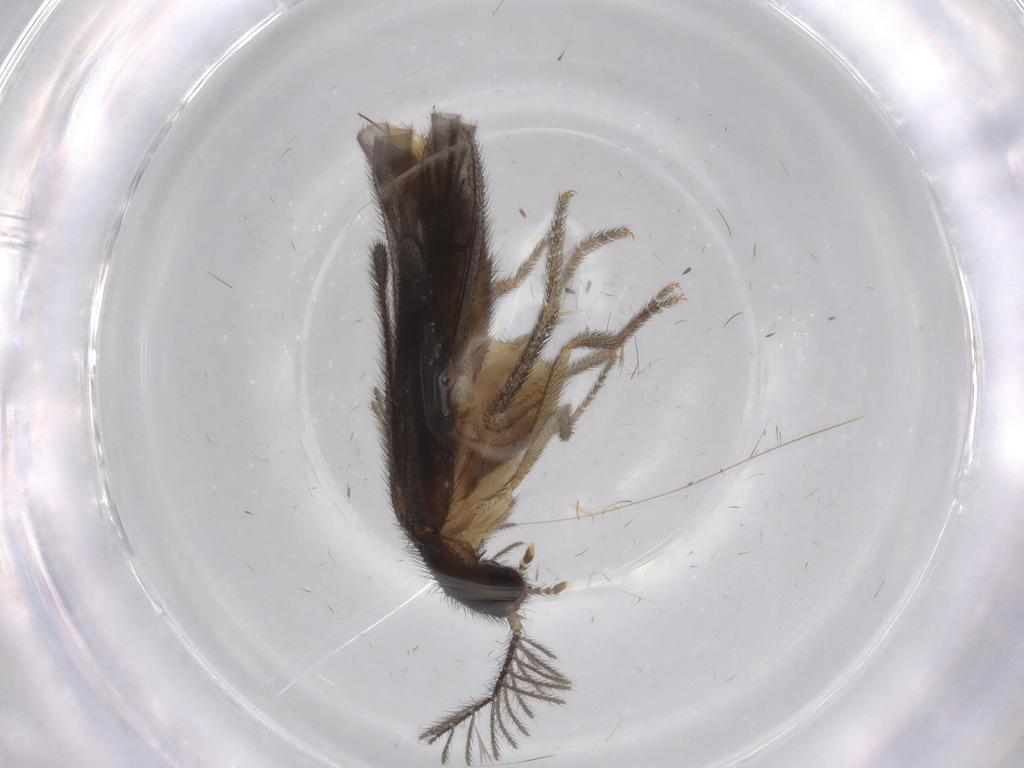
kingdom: Animalia
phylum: Arthropoda
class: Insecta
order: Coleoptera
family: Phengodidae
